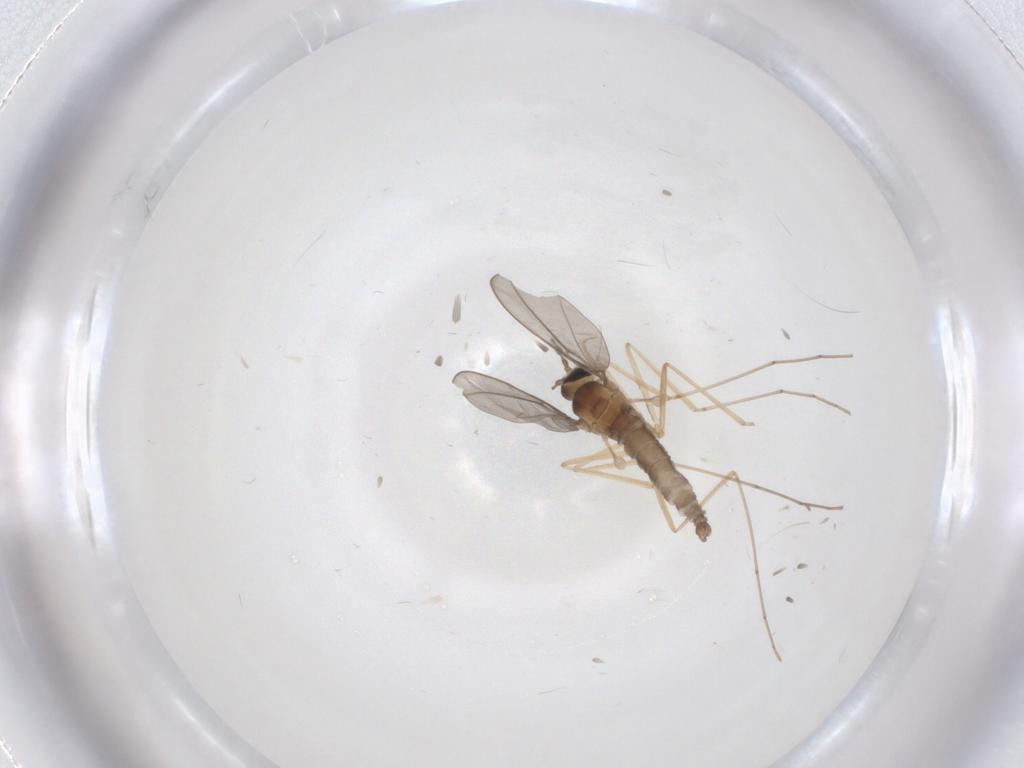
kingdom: Animalia
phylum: Arthropoda
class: Insecta
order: Diptera
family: Cecidomyiidae
